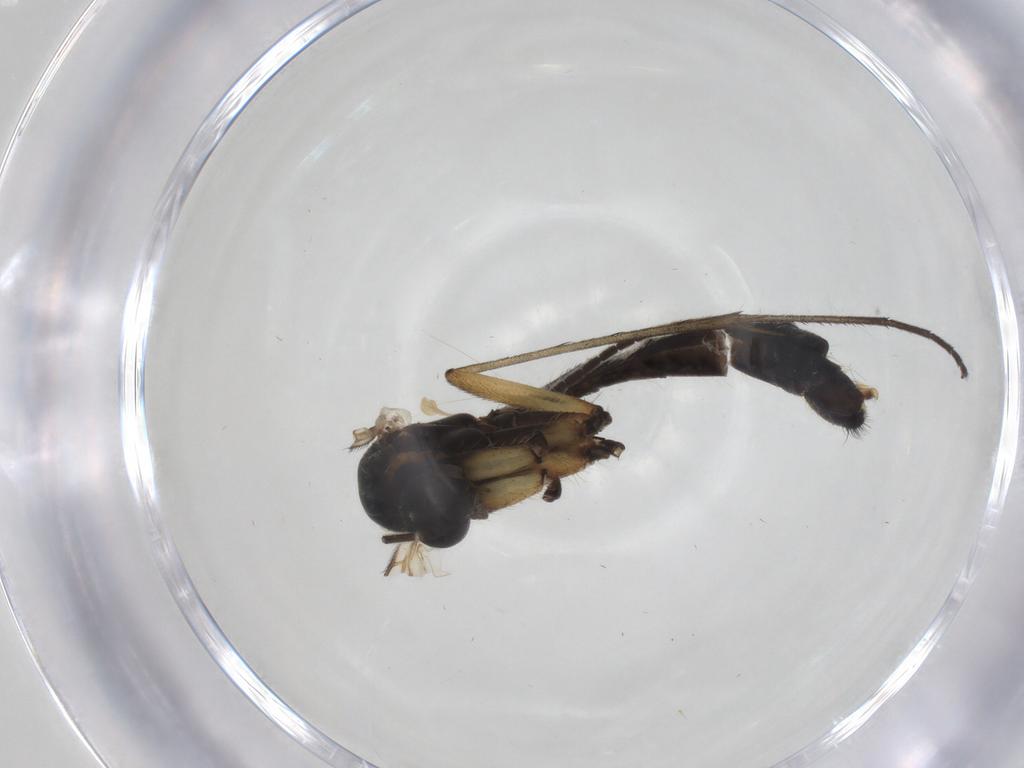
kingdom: Animalia
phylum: Arthropoda
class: Insecta
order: Diptera
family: Mycetophilidae
